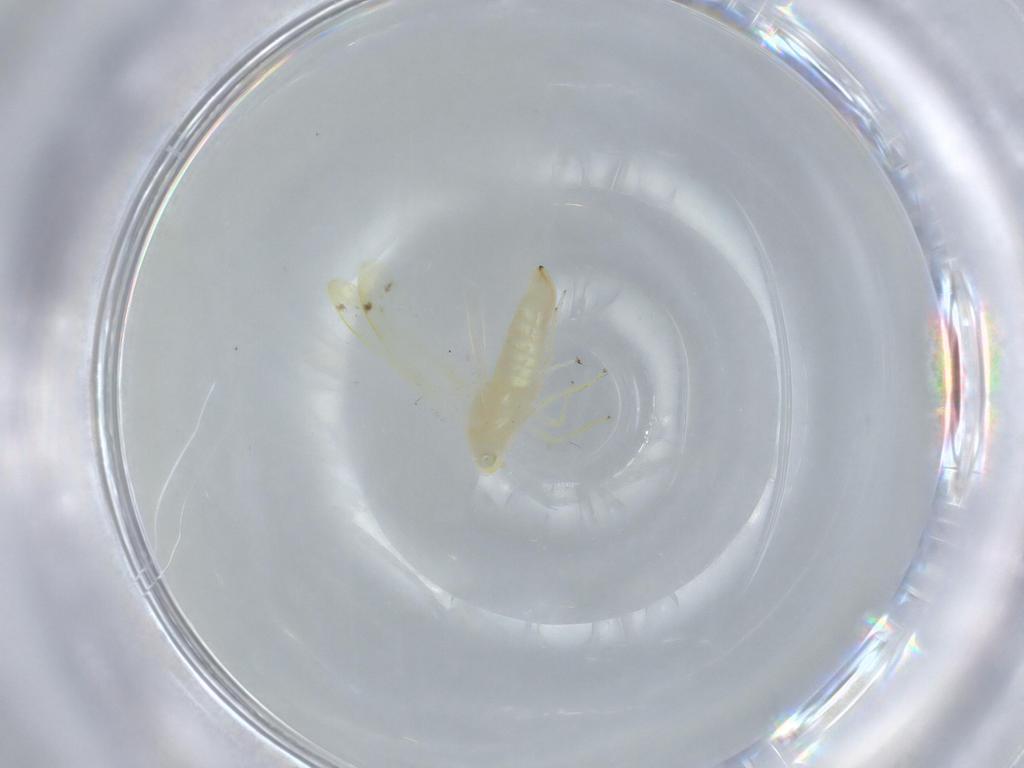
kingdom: Animalia
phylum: Arthropoda
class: Insecta
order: Hemiptera
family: Cicadellidae
